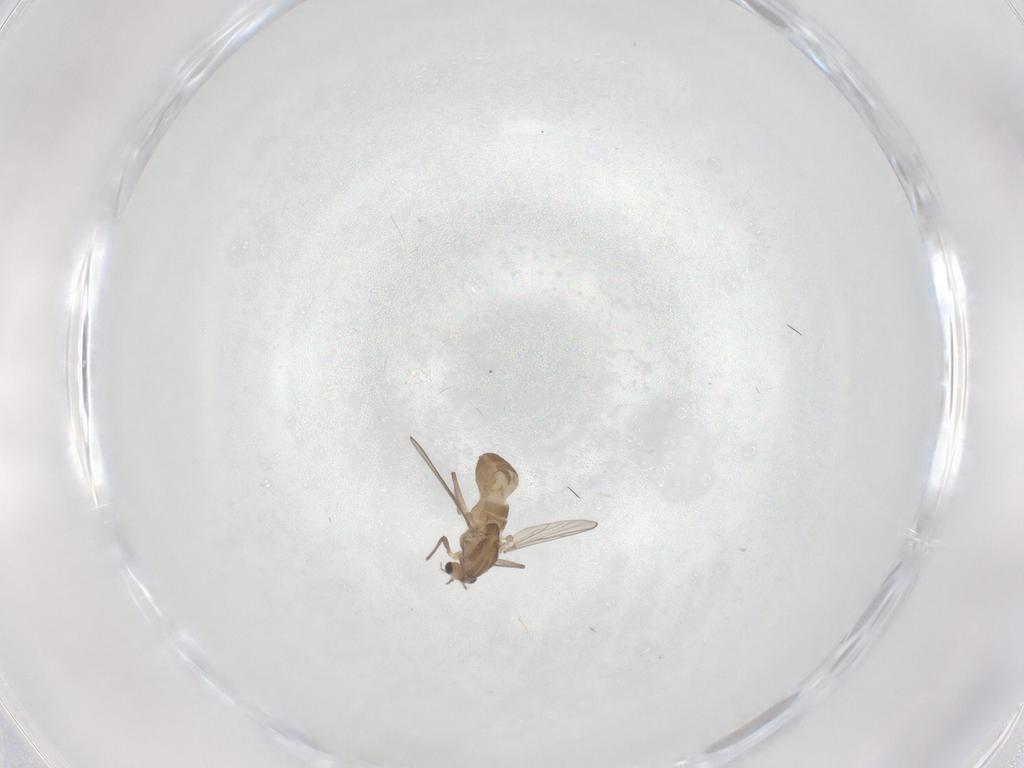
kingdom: Animalia
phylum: Arthropoda
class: Insecta
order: Diptera
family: Chironomidae
